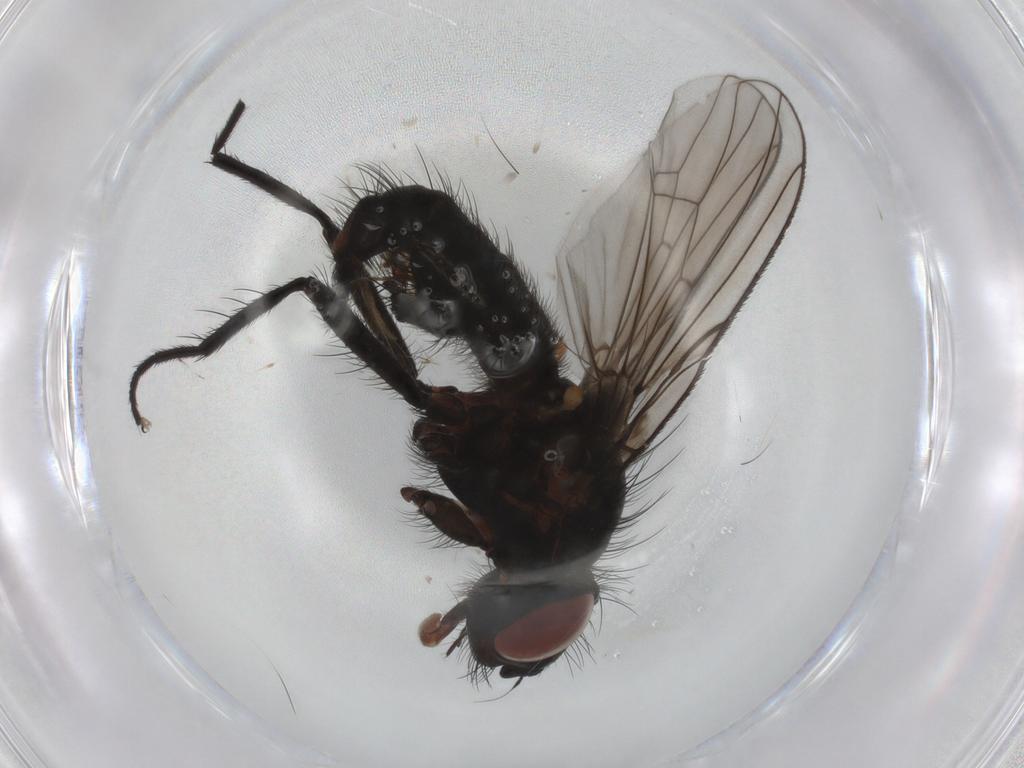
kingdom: Animalia
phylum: Arthropoda
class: Insecta
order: Diptera
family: Anthomyiidae
